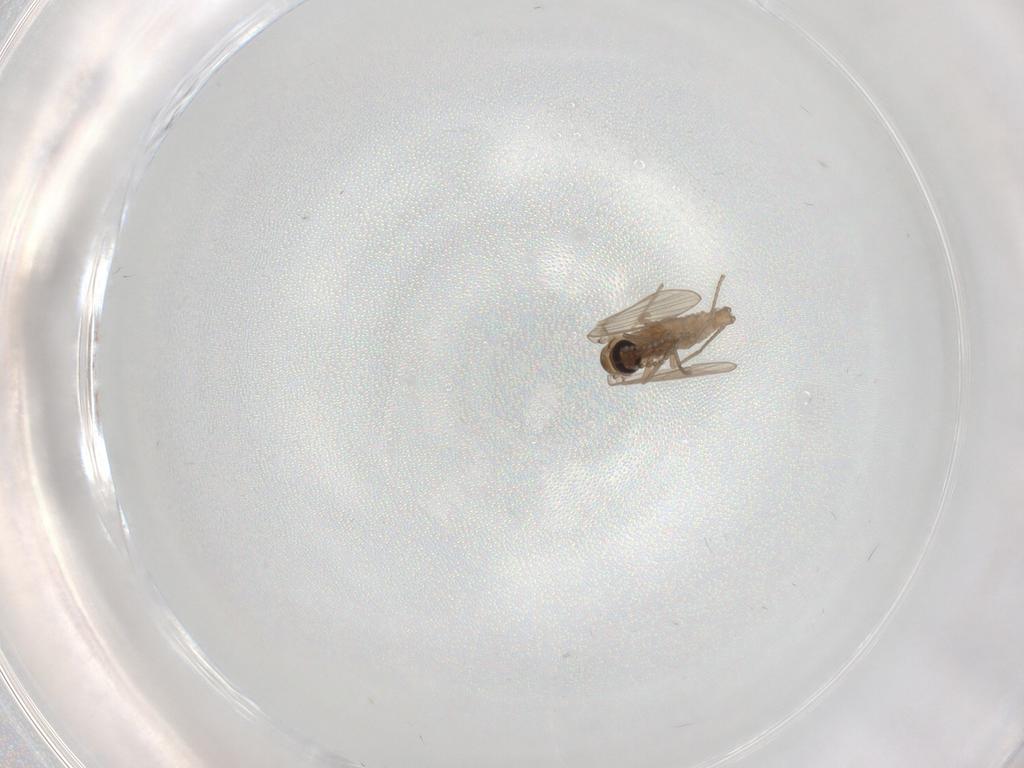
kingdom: Animalia
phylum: Arthropoda
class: Insecta
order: Diptera
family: Cecidomyiidae
